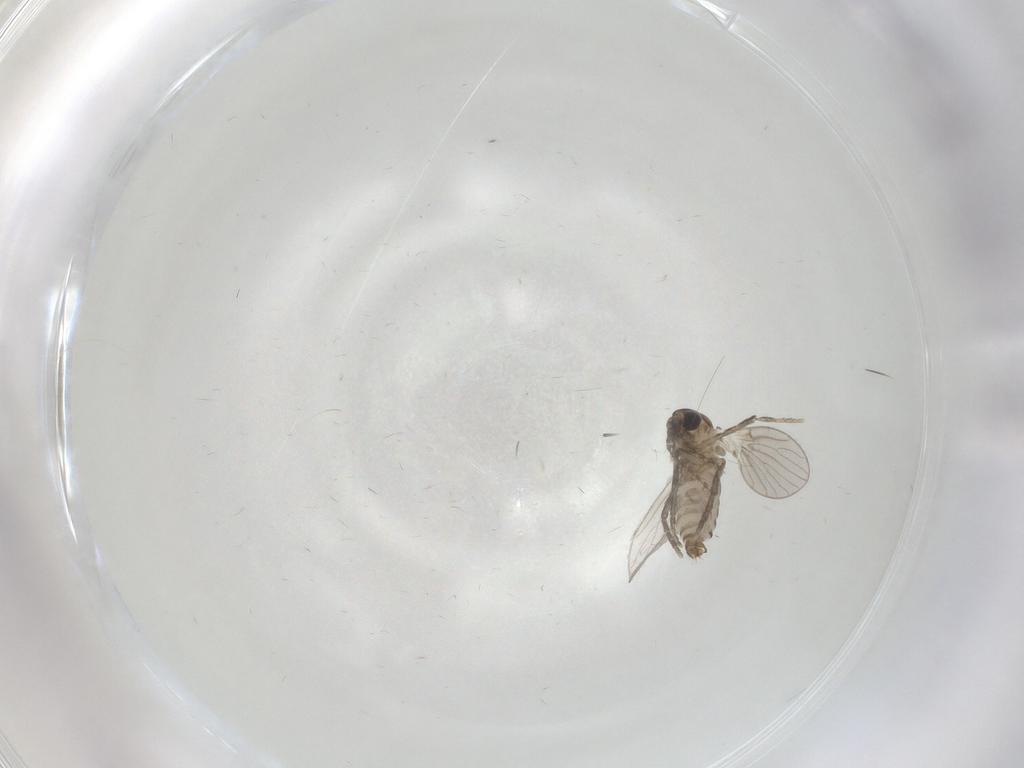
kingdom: Animalia
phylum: Arthropoda
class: Insecta
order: Diptera
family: Psychodidae
